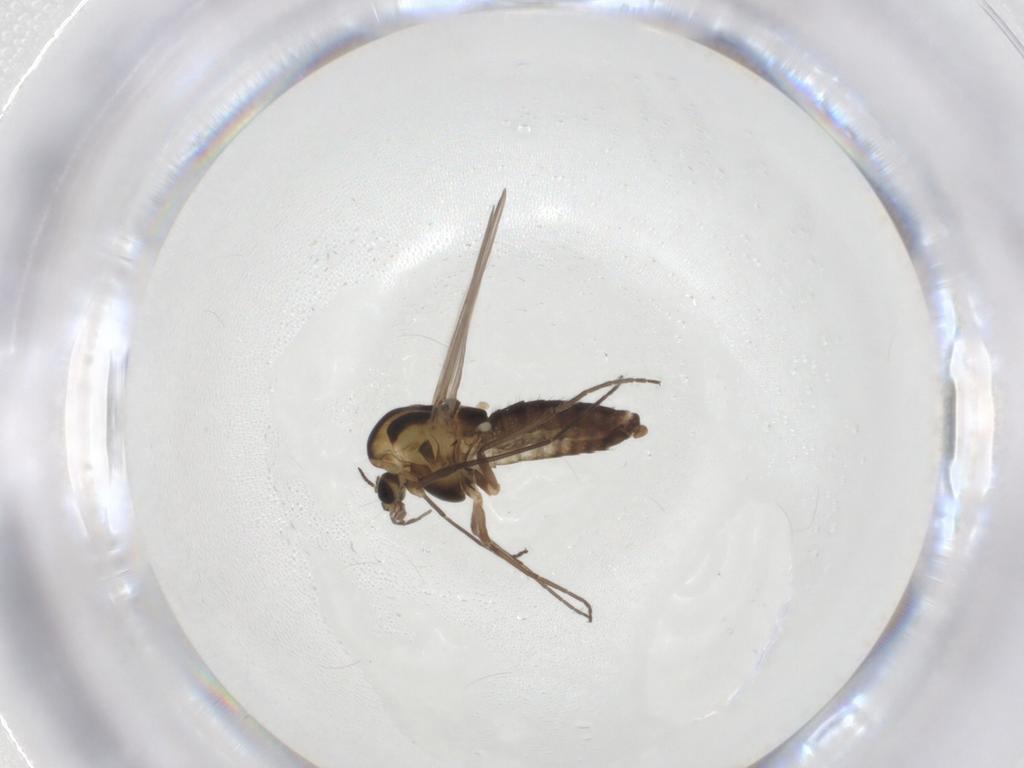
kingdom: Animalia
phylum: Arthropoda
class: Insecta
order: Diptera
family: Chironomidae
